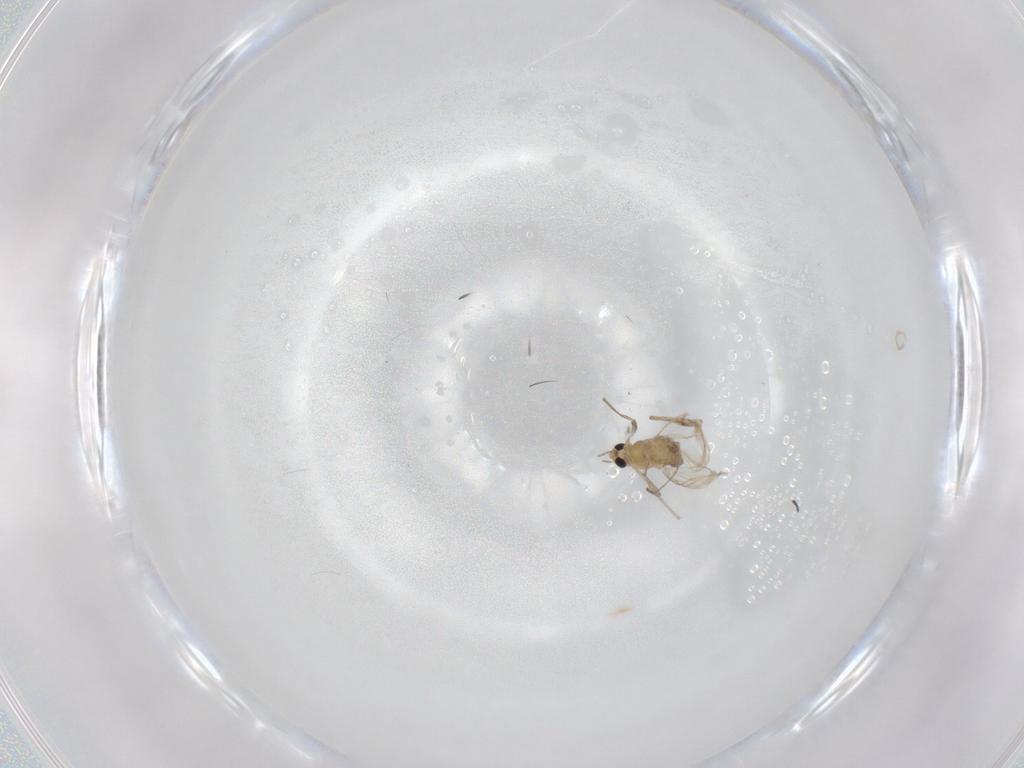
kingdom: Animalia
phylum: Arthropoda
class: Insecta
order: Diptera
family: Chironomidae
